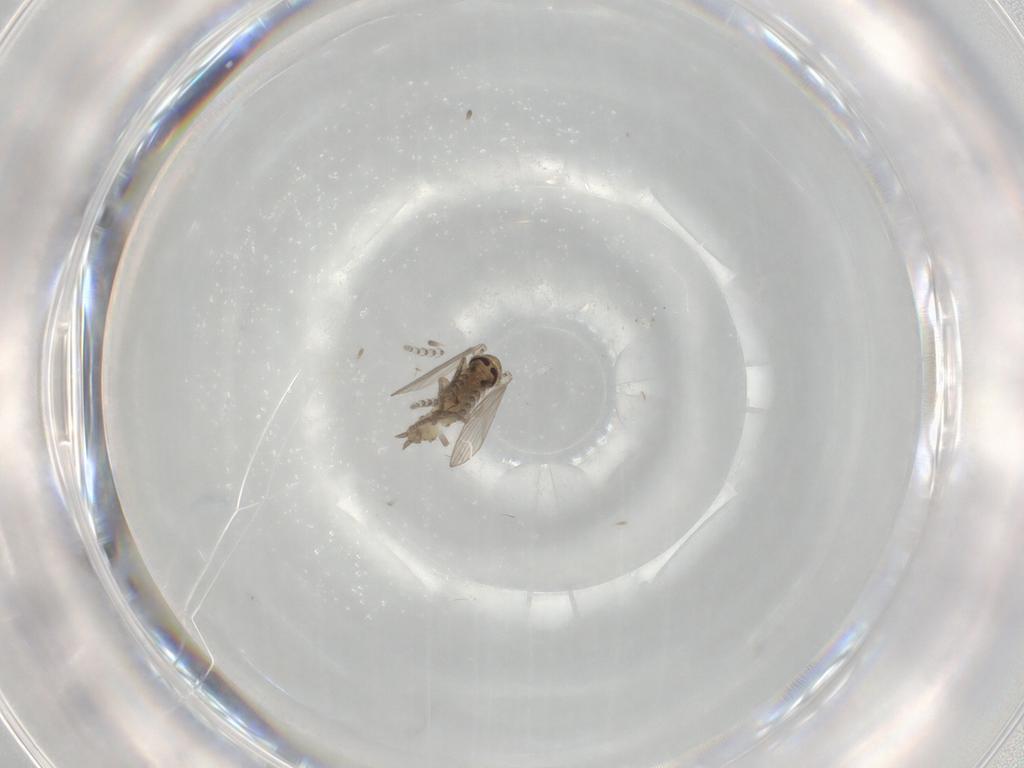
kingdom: Animalia
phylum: Arthropoda
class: Insecta
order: Diptera
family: Psychodidae
